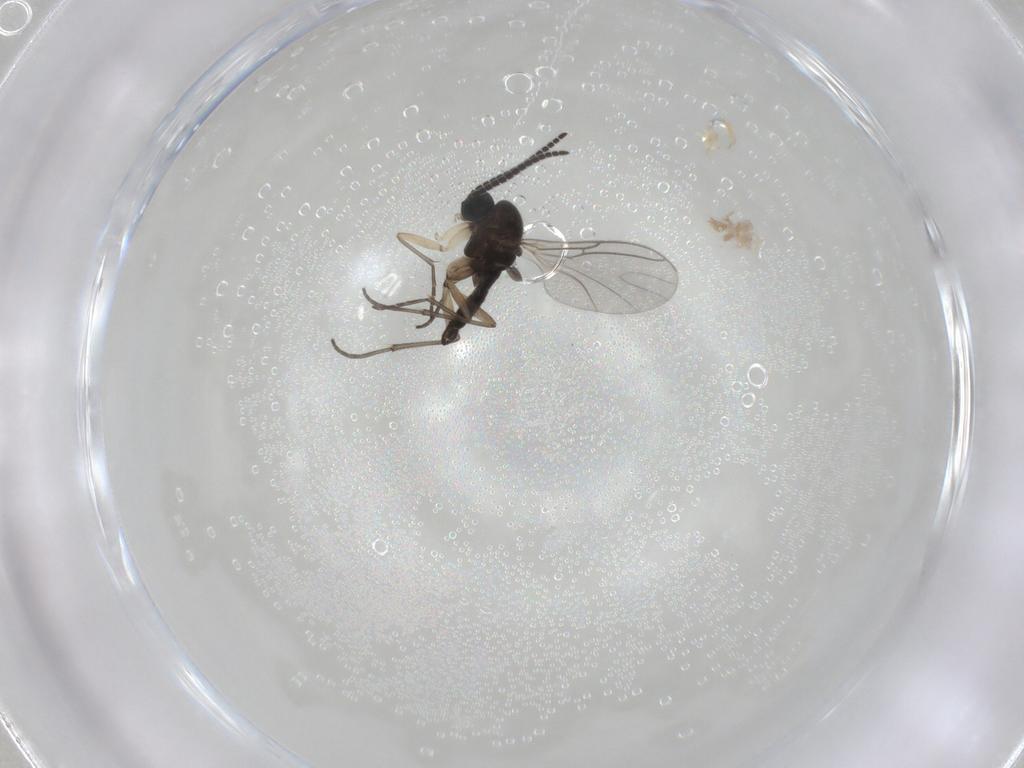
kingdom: Animalia
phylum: Arthropoda
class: Insecta
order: Diptera
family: Sciaridae
